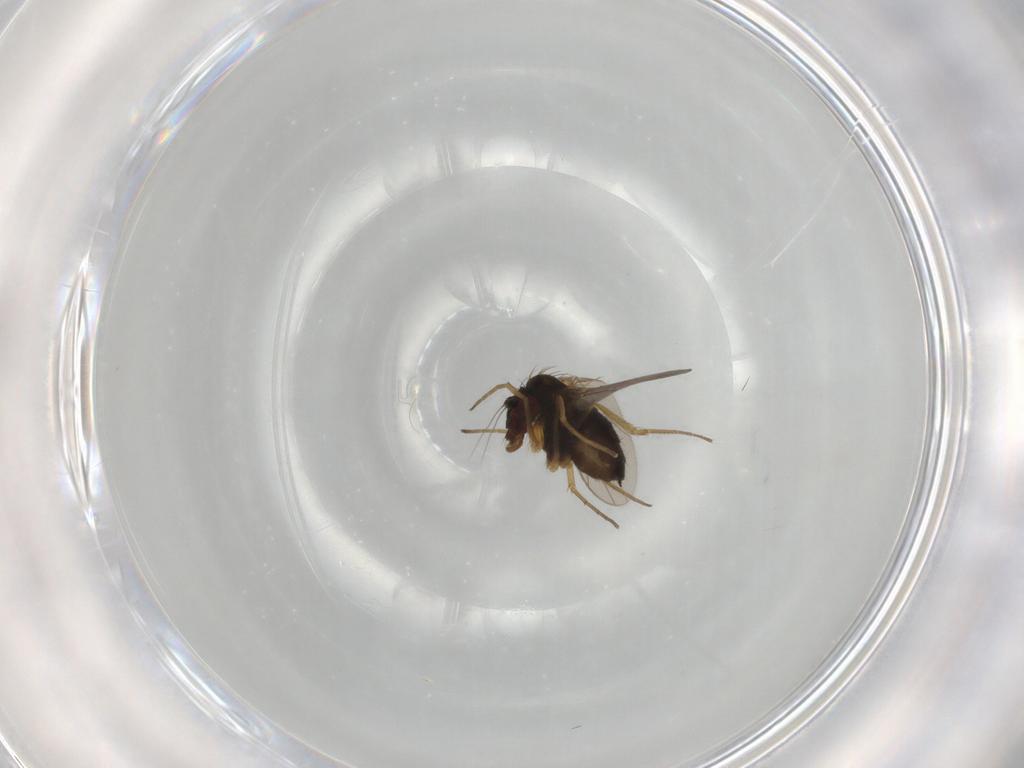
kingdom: Animalia
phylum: Arthropoda
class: Insecta
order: Diptera
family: Dolichopodidae
